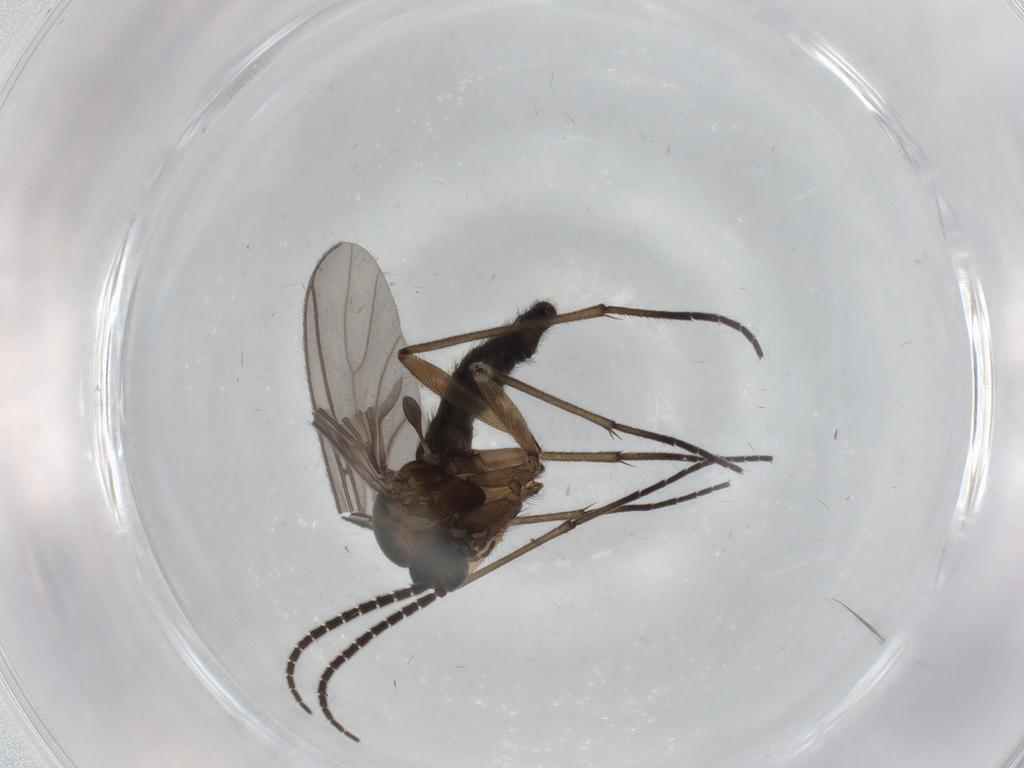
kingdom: Animalia
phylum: Arthropoda
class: Insecta
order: Diptera
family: Sciaridae
